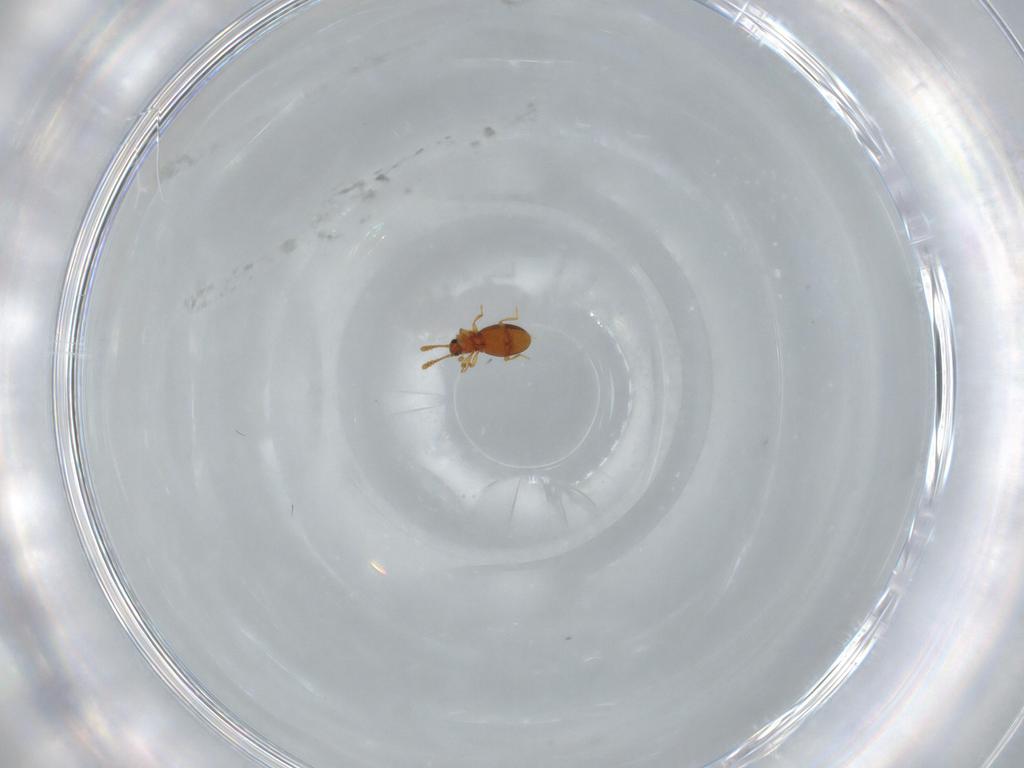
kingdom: Animalia
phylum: Arthropoda
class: Insecta
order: Coleoptera
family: Staphylinidae
